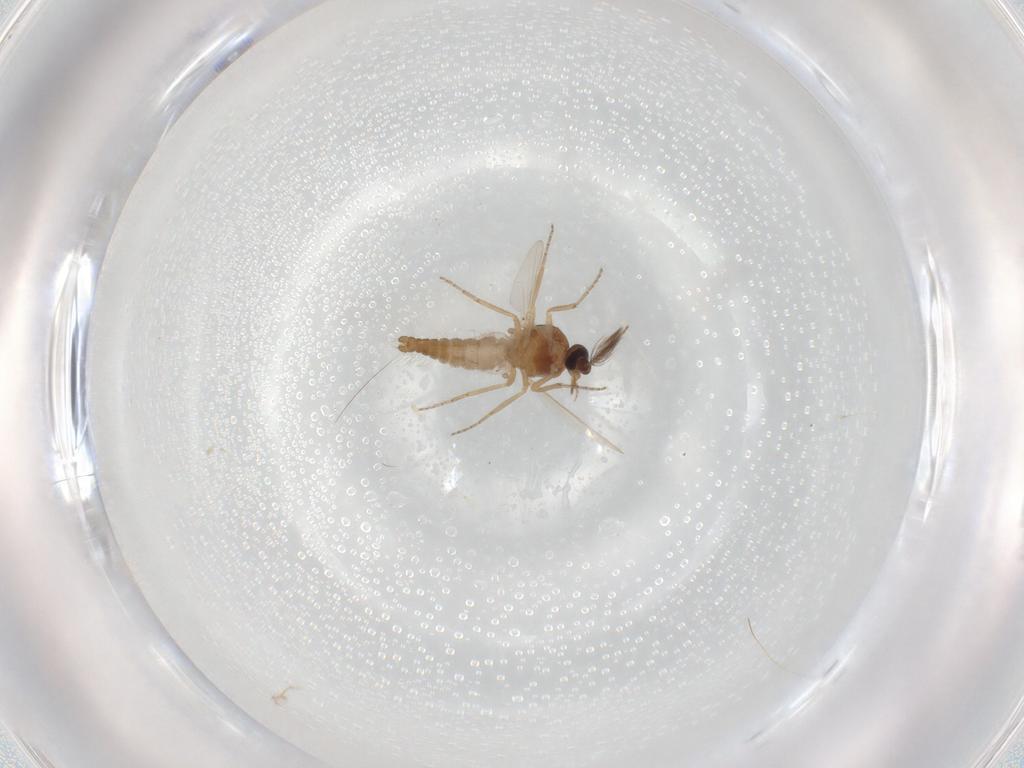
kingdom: Animalia
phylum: Arthropoda
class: Insecta
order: Diptera
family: Ceratopogonidae
